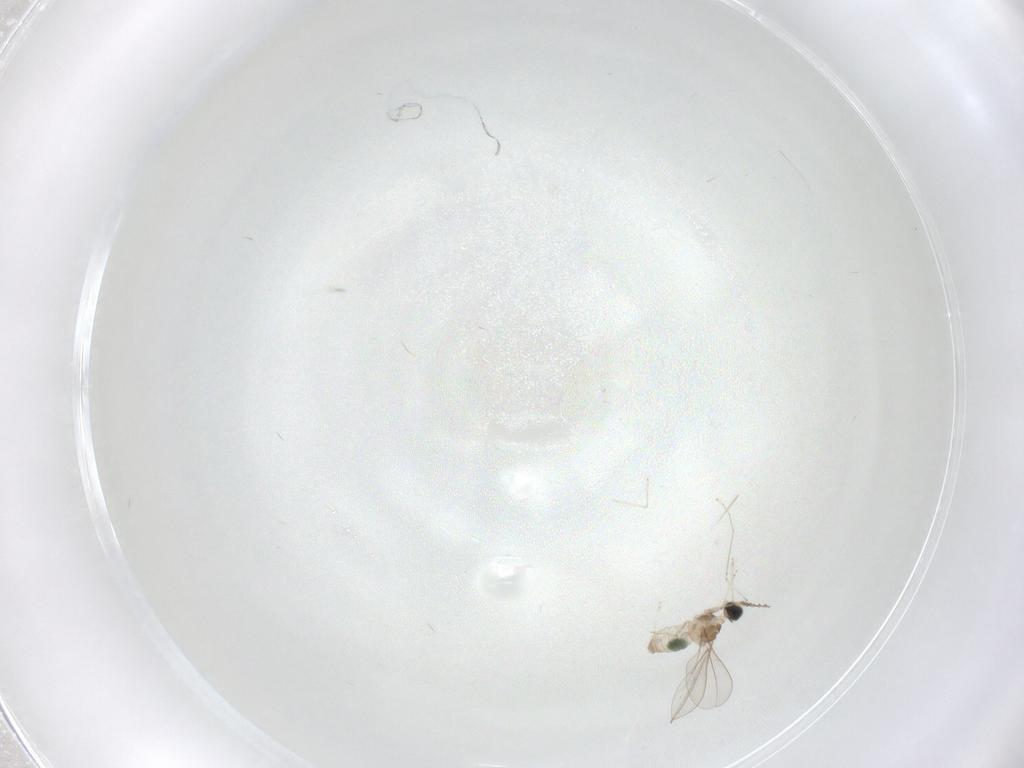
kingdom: Animalia
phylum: Arthropoda
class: Insecta
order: Diptera
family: Cecidomyiidae
